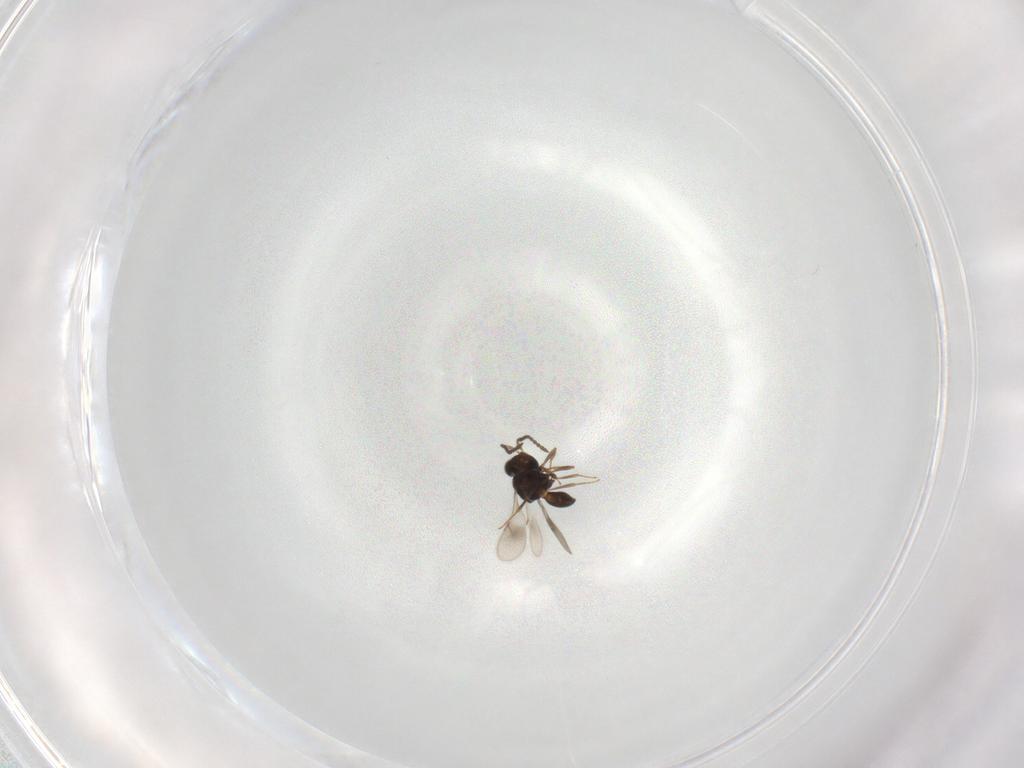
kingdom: Animalia
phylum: Arthropoda
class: Insecta
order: Hymenoptera
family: Scelionidae
